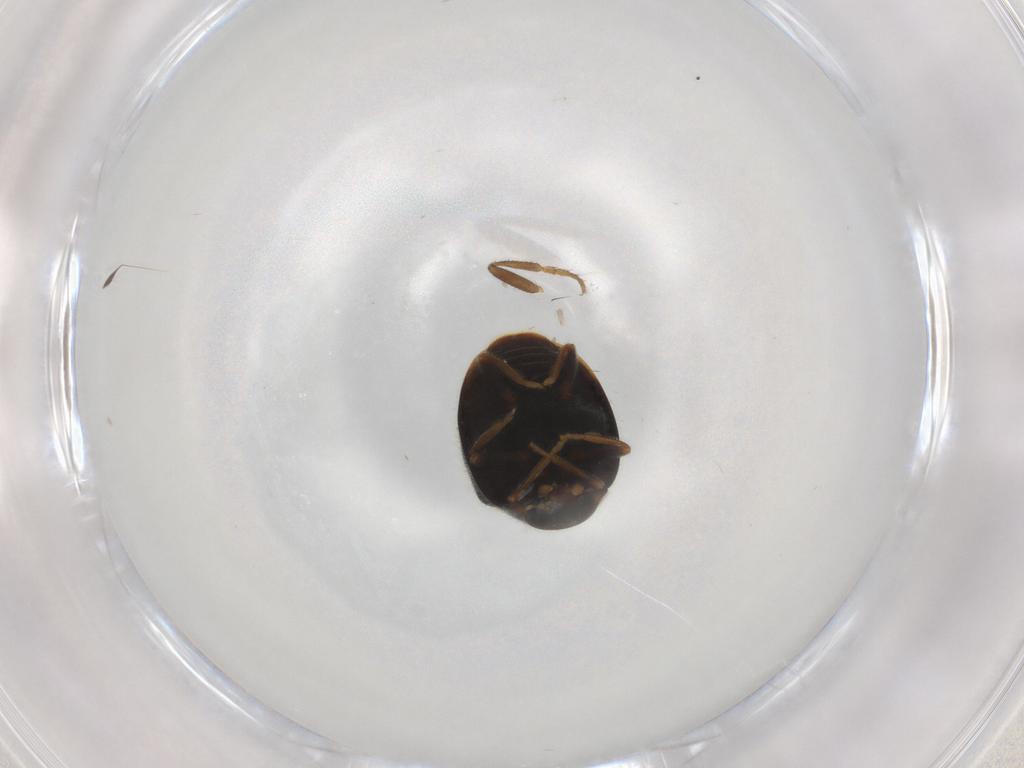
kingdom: Animalia
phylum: Arthropoda
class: Insecta
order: Coleoptera
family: Coccinellidae
